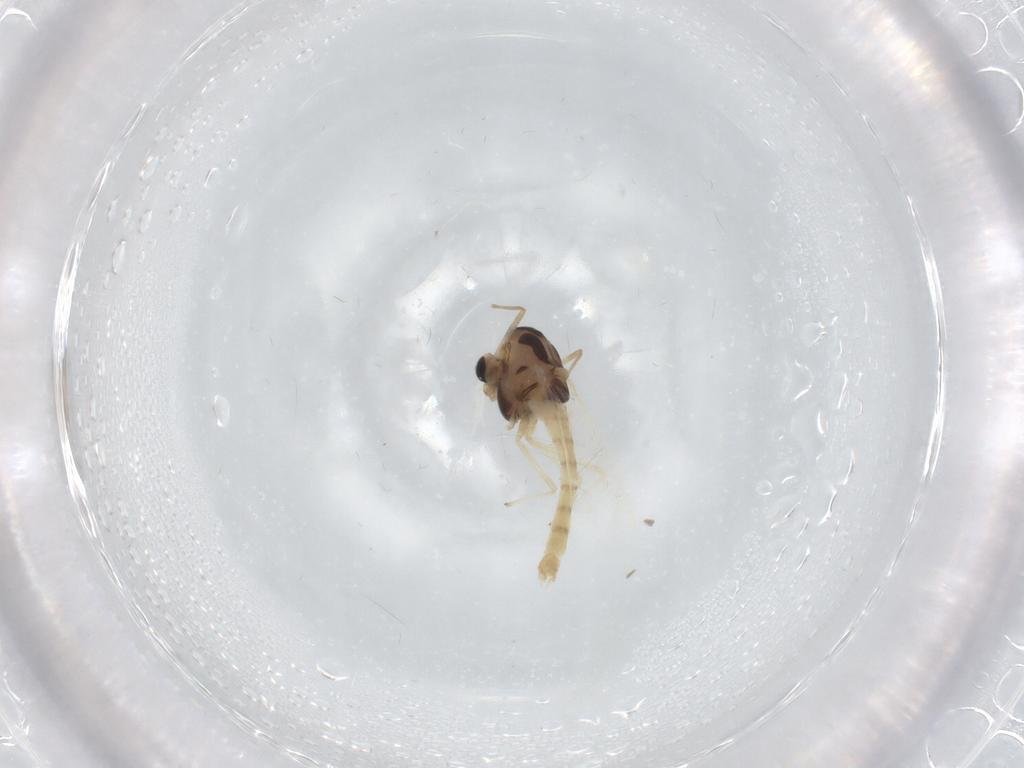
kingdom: Animalia
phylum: Arthropoda
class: Insecta
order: Diptera
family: Chironomidae
